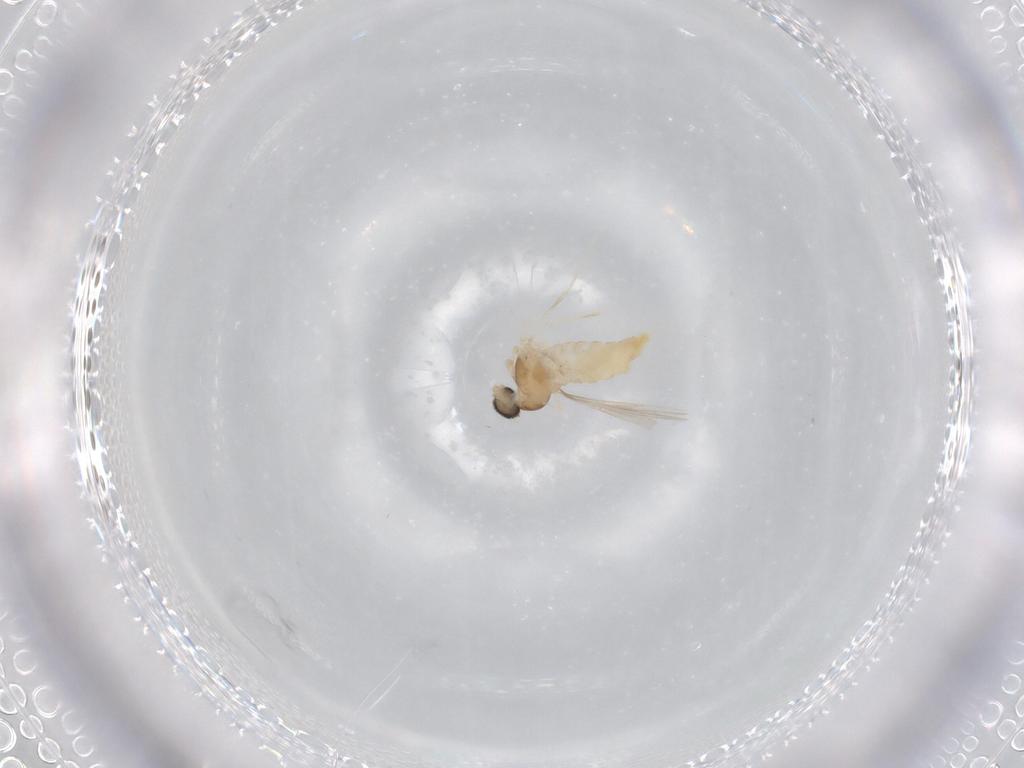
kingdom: Animalia
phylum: Arthropoda
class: Insecta
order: Diptera
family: Cecidomyiidae
